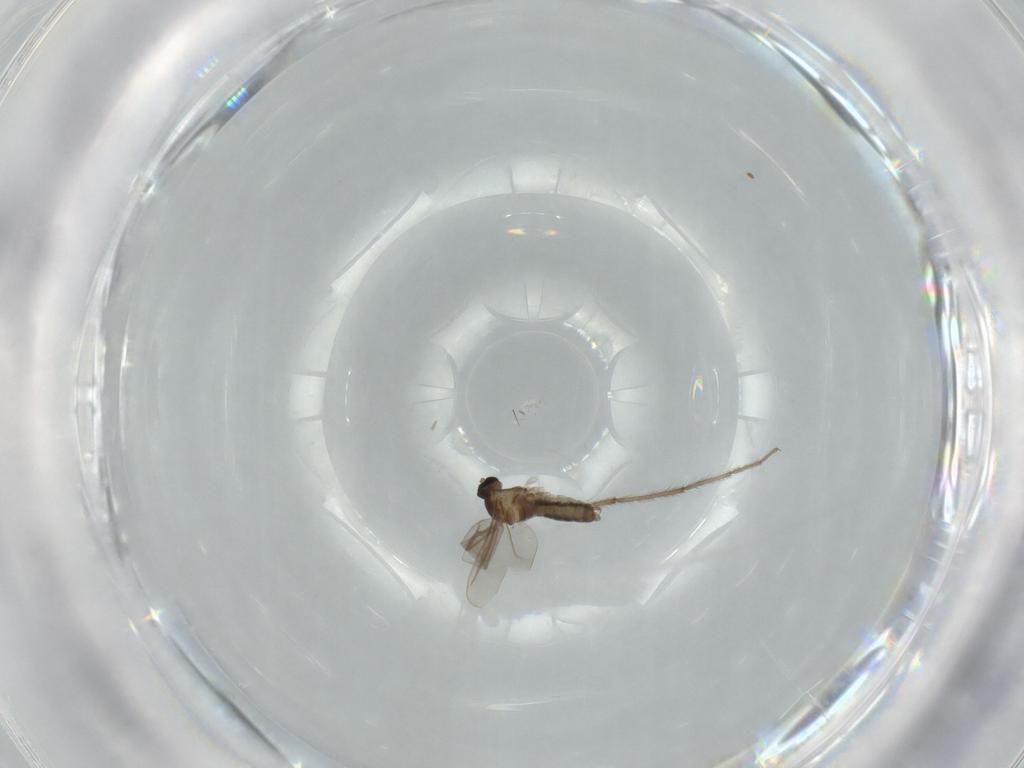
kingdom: Animalia
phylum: Arthropoda
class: Insecta
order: Diptera
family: Cecidomyiidae
